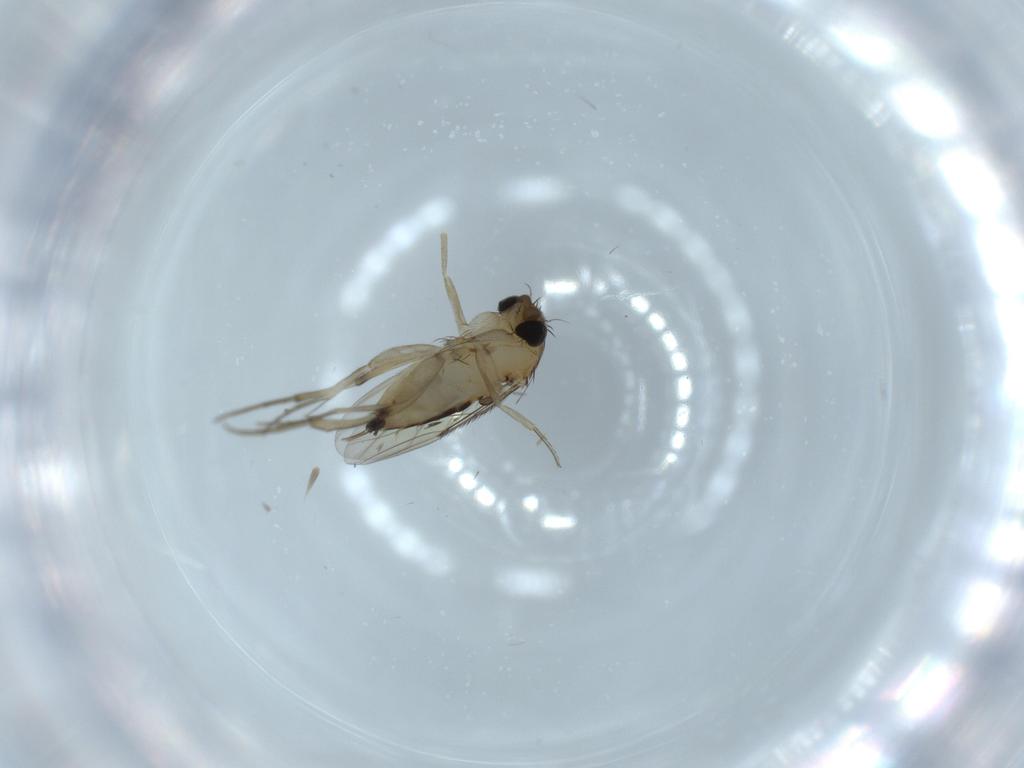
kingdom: Animalia
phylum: Arthropoda
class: Insecta
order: Diptera
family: Phoridae
